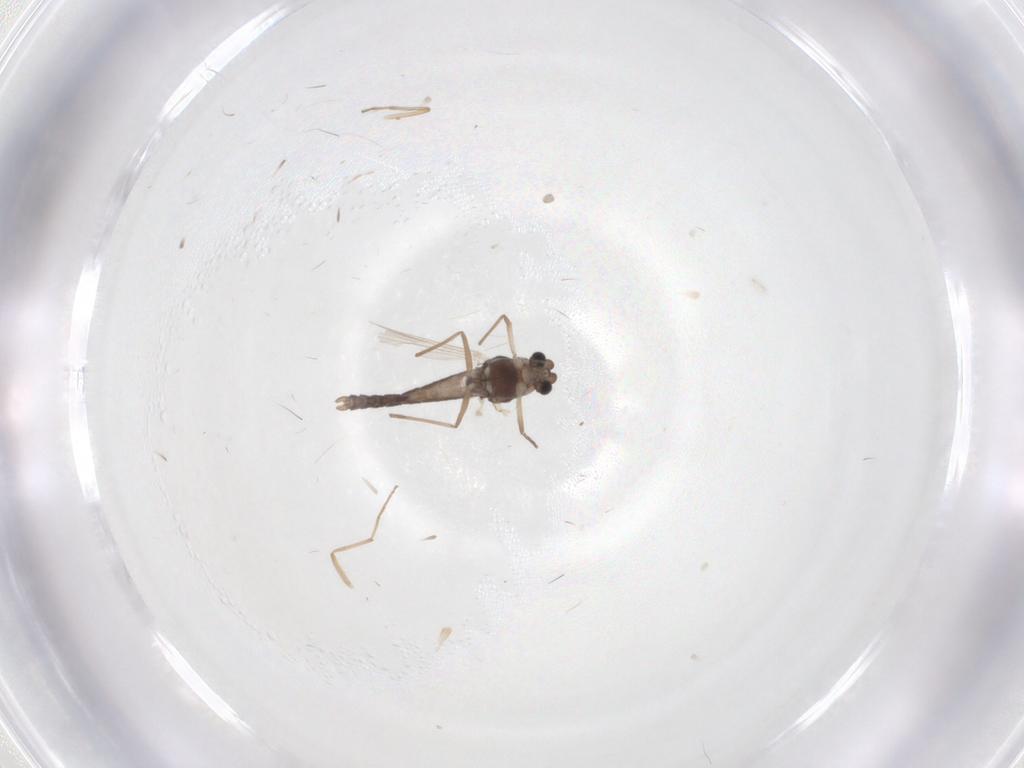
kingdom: Animalia
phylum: Arthropoda
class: Insecta
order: Diptera
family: Chironomidae
